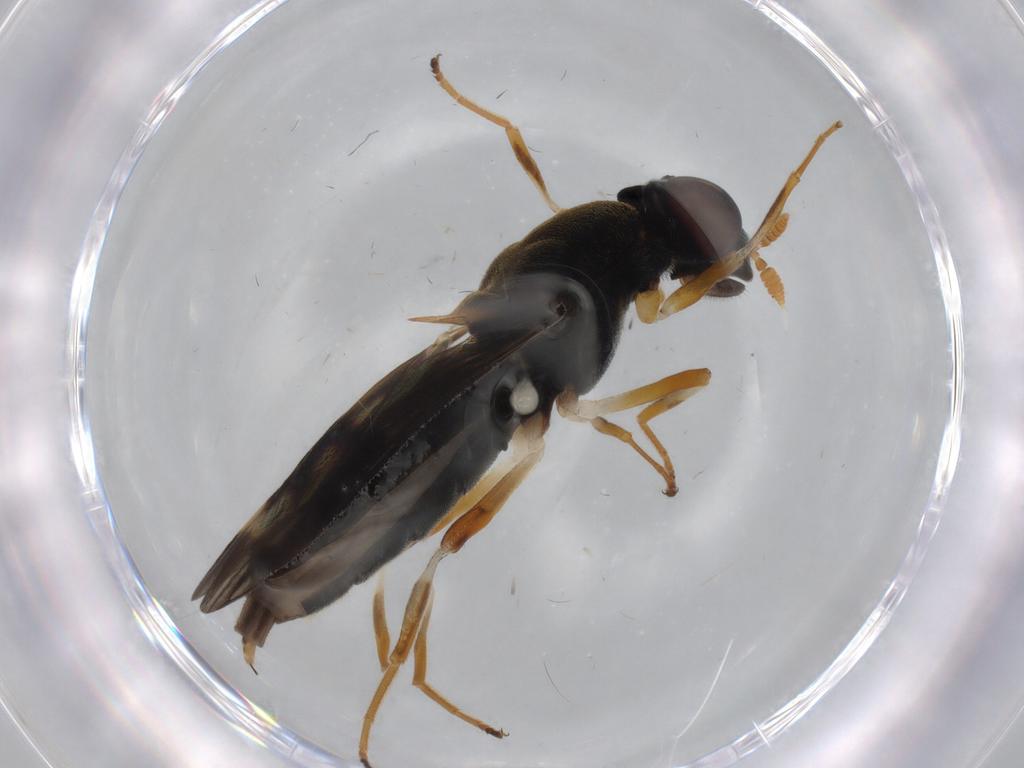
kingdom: Animalia
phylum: Arthropoda
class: Insecta
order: Diptera
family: Stratiomyidae
